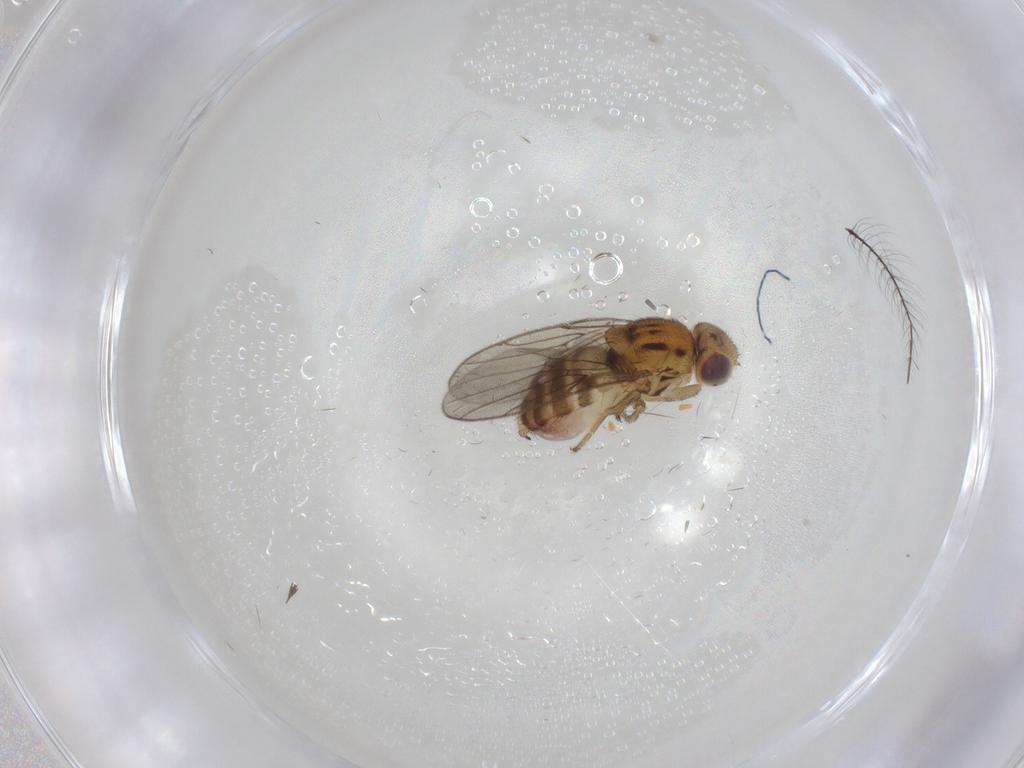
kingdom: Animalia
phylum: Arthropoda
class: Insecta
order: Diptera
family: Chloropidae
